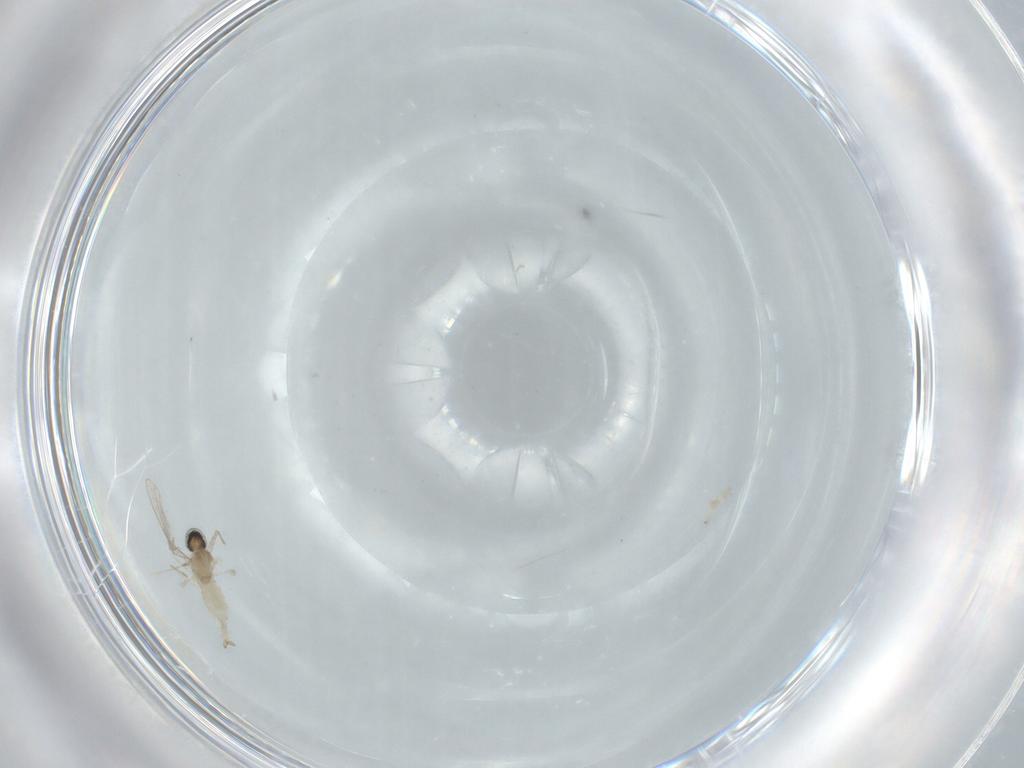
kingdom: Animalia
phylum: Arthropoda
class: Insecta
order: Diptera
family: Cecidomyiidae
